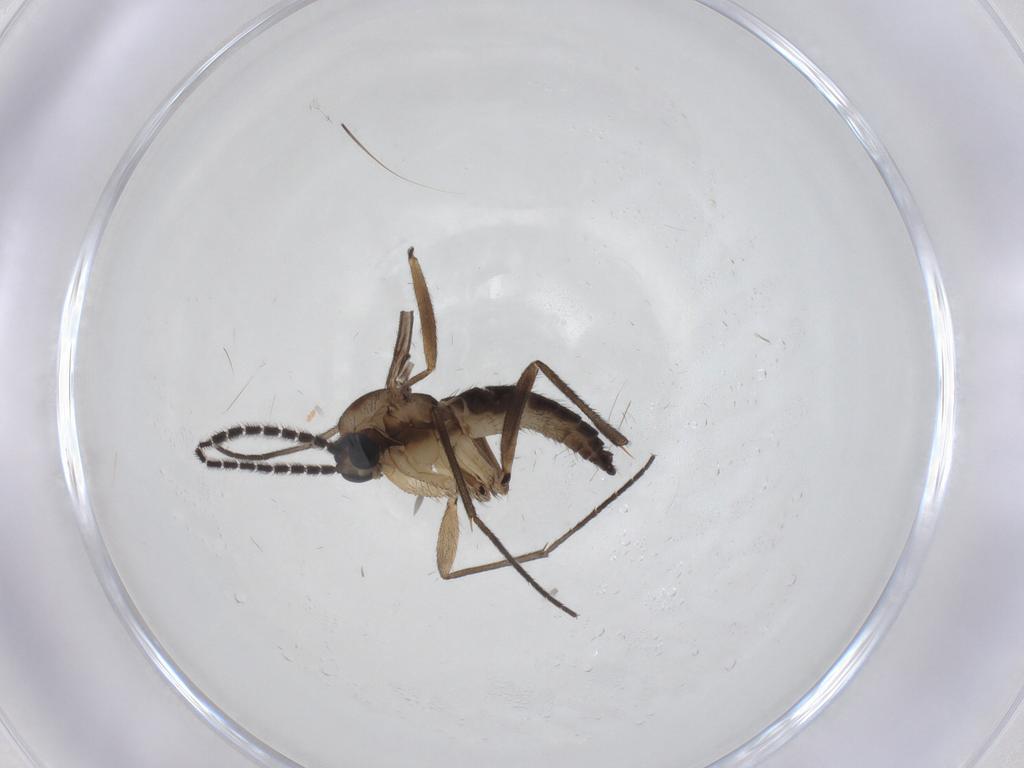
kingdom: Animalia
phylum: Arthropoda
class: Insecta
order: Diptera
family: Sciaridae
